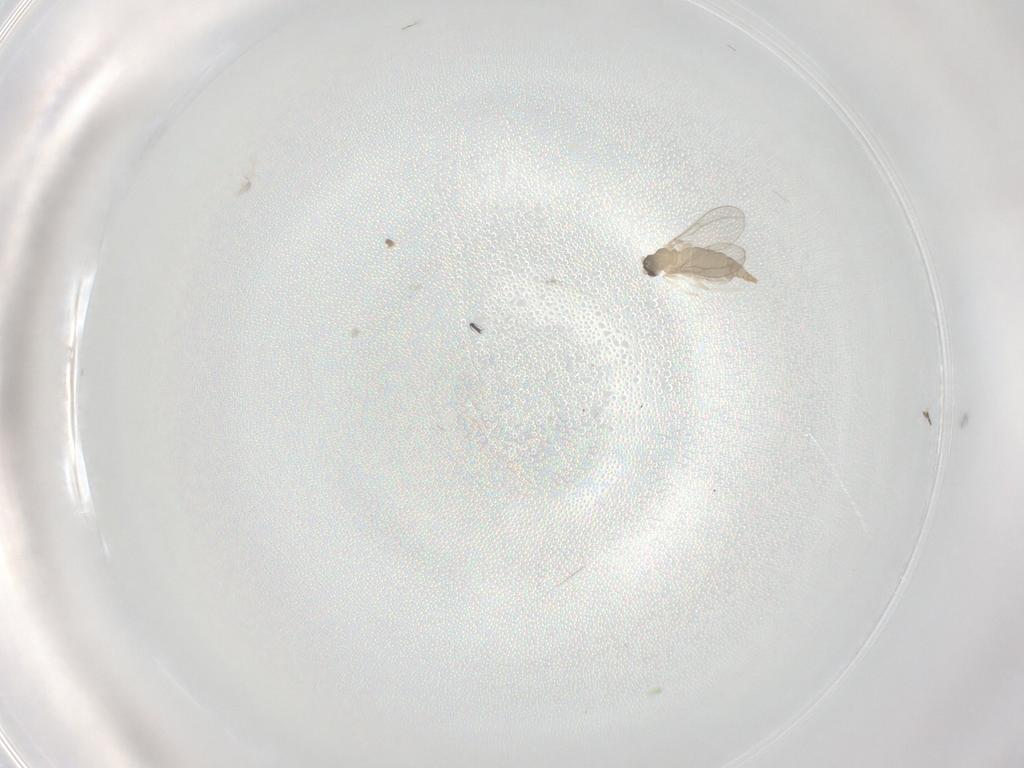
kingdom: Animalia
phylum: Arthropoda
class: Insecta
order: Diptera
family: Cecidomyiidae
